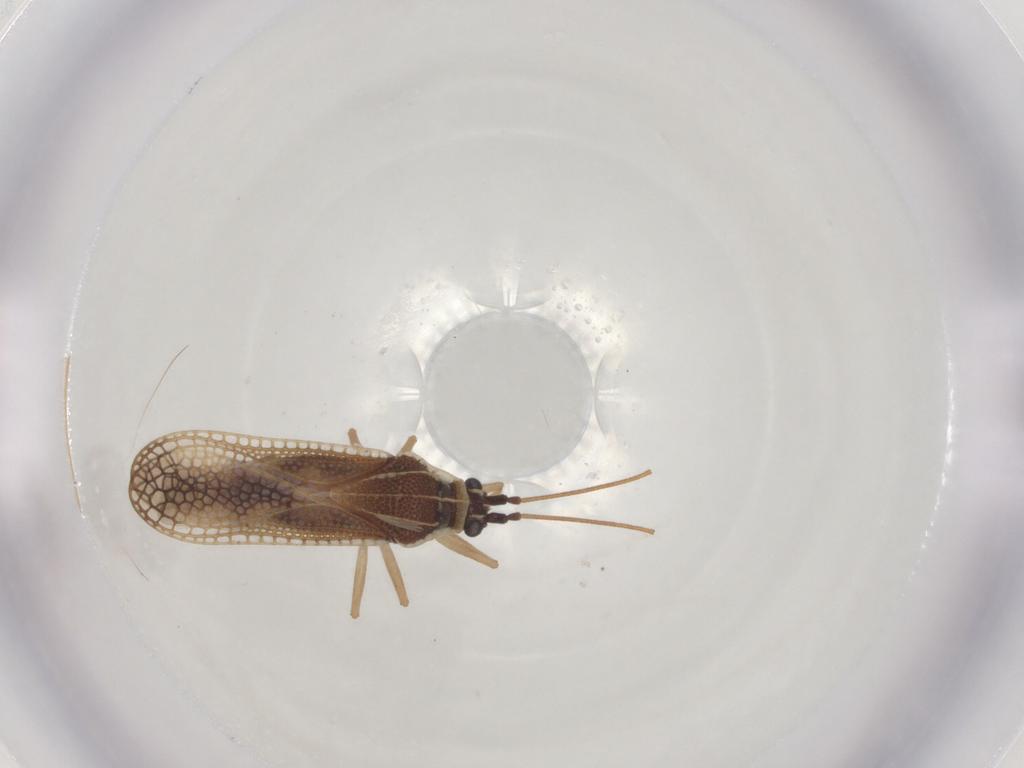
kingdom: Animalia
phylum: Arthropoda
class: Insecta
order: Hemiptera
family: Tingidae
